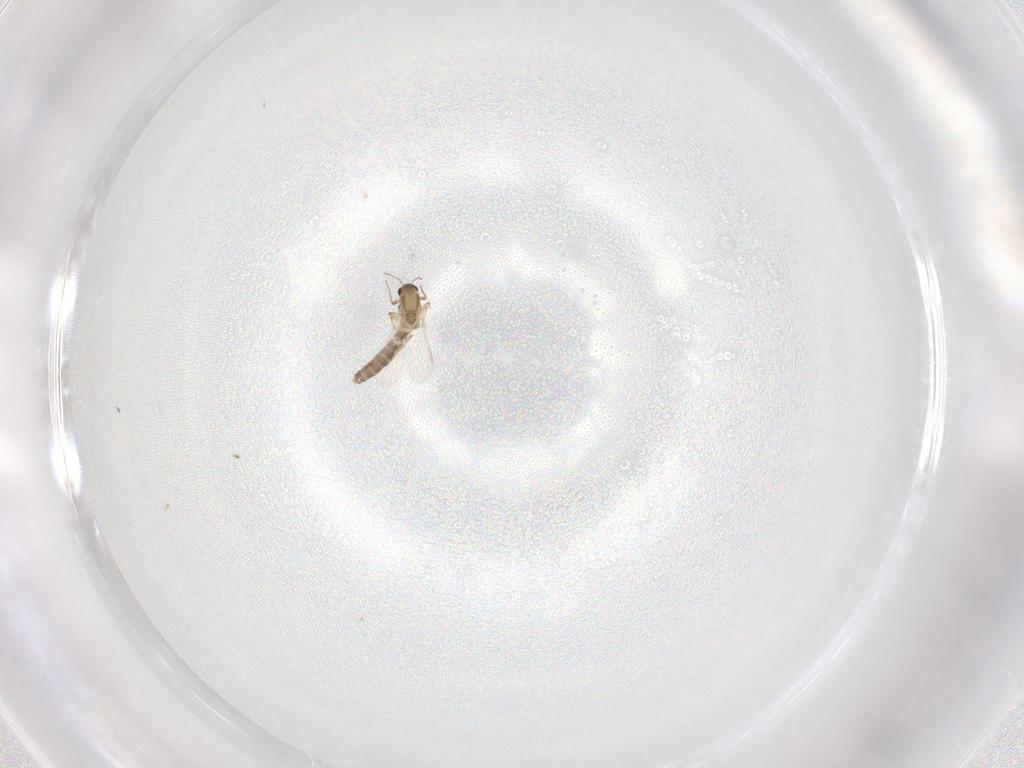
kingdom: Animalia
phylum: Arthropoda
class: Insecta
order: Diptera
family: Chironomidae
